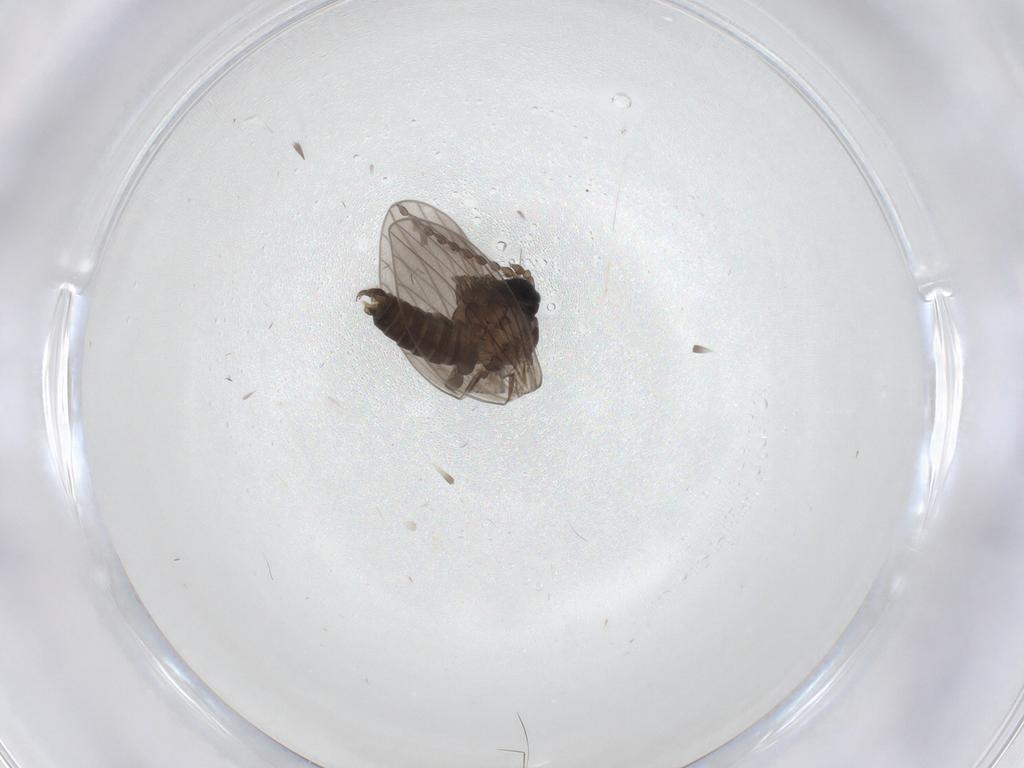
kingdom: Animalia
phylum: Arthropoda
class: Insecta
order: Diptera
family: Psychodidae
